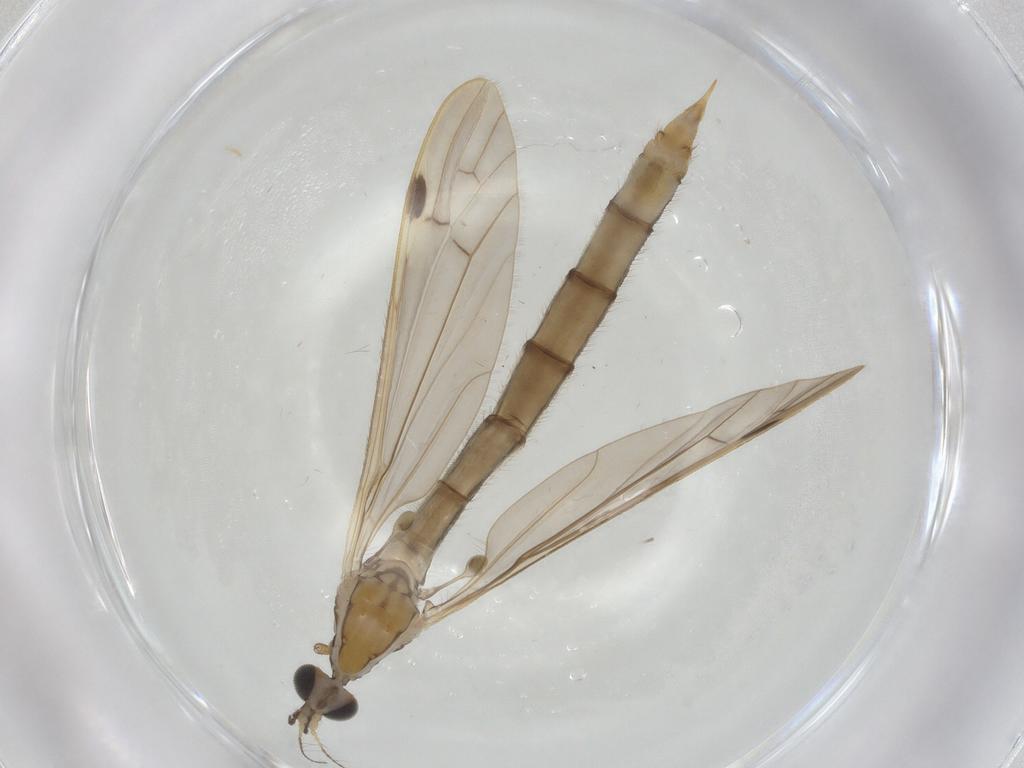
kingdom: Animalia
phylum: Arthropoda
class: Insecta
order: Diptera
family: Limoniidae
